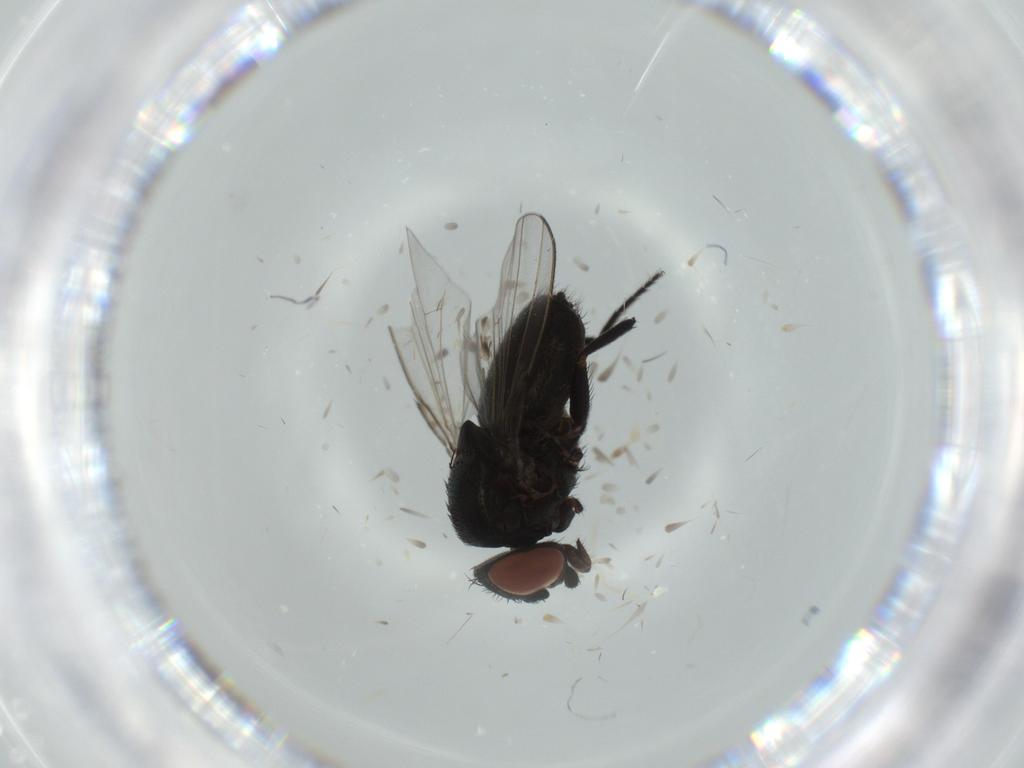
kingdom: Animalia
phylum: Arthropoda
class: Insecta
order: Diptera
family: Milichiidae
